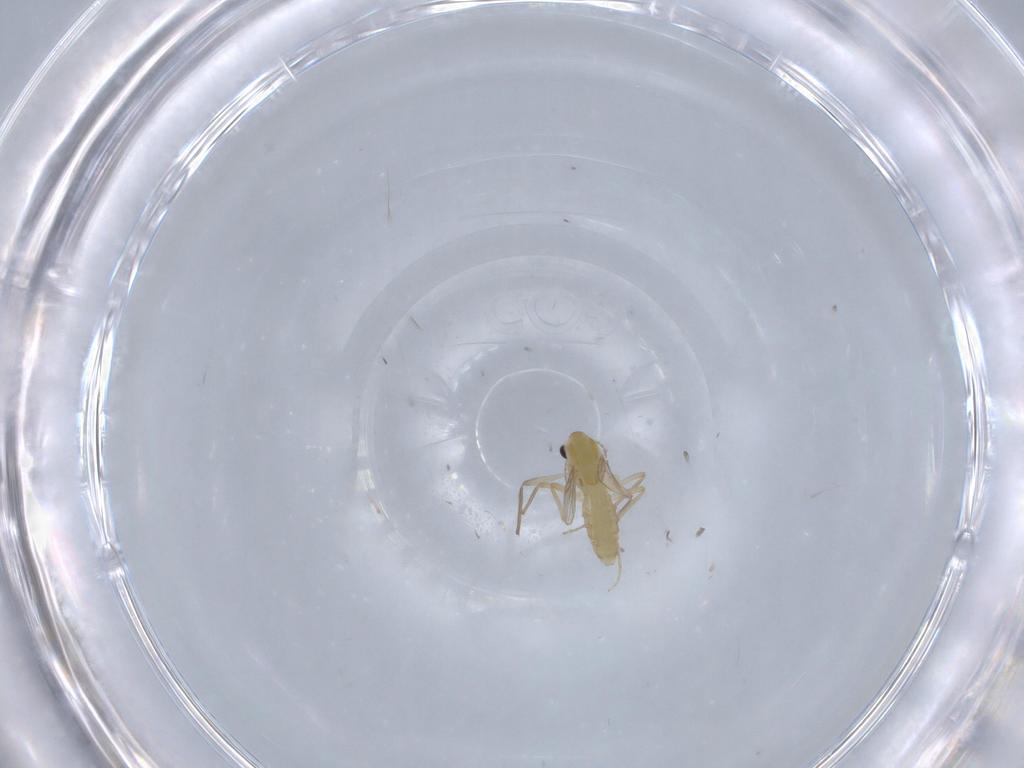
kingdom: Animalia
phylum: Arthropoda
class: Insecta
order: Diptera
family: Chironomidae
